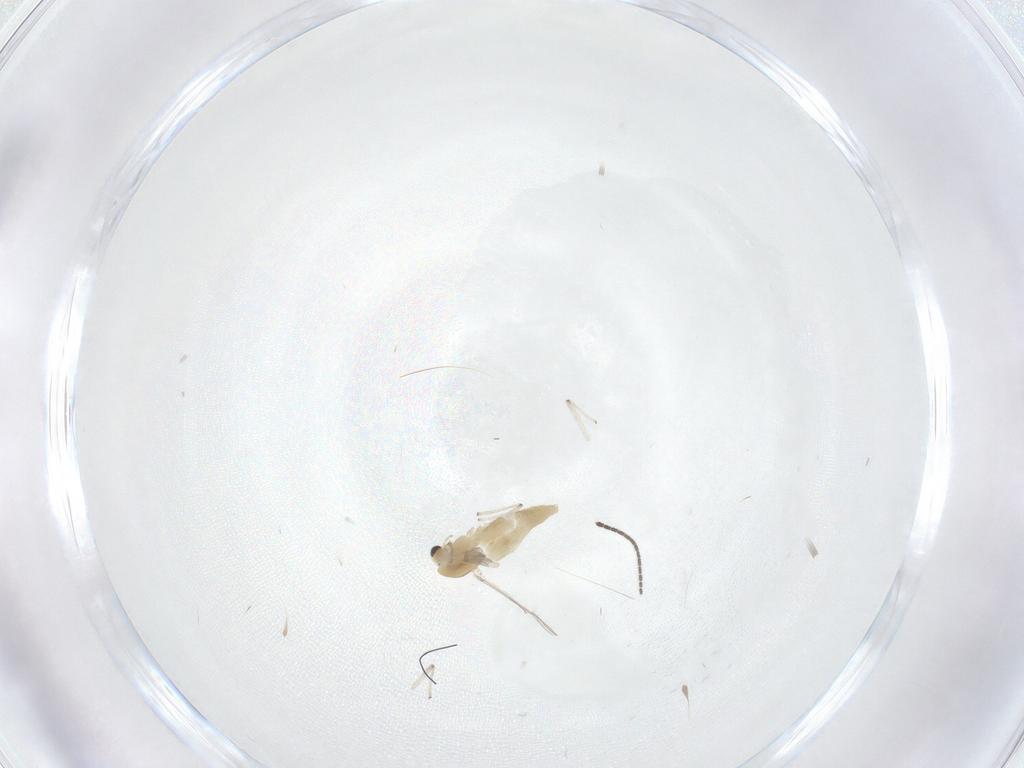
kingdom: Animalia
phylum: Arthropoda
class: Insecta
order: Diptera
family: Chironomidae
